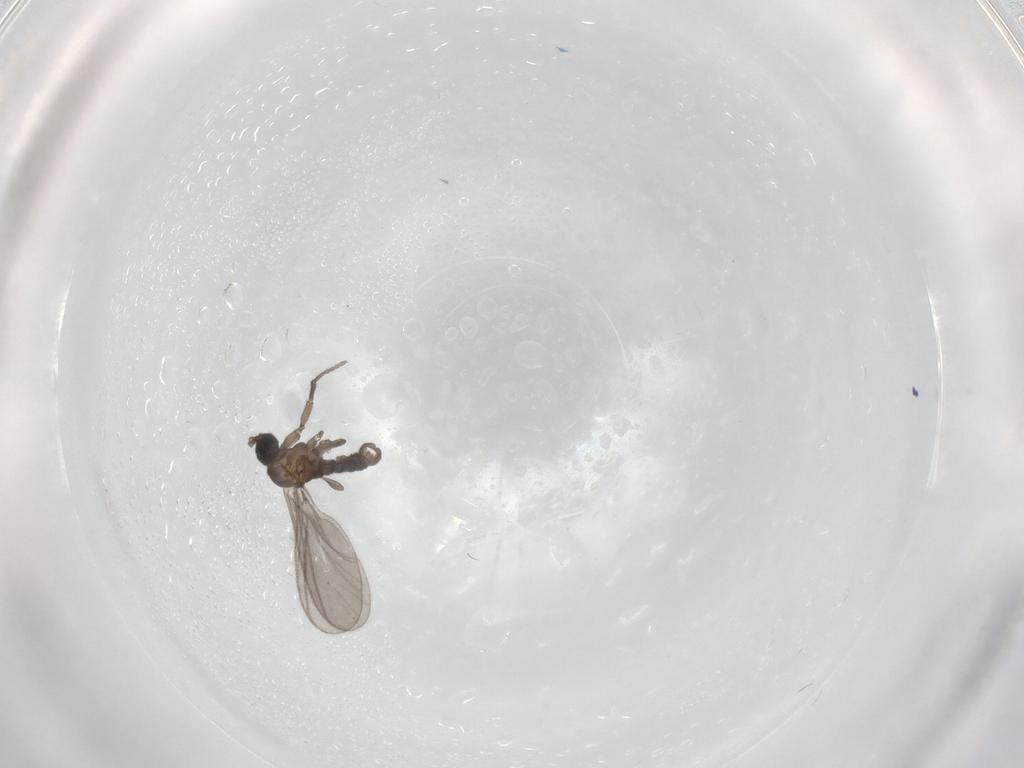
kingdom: Animalia
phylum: Arthropoda
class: Insecta
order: Diptera
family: Sciaridae
